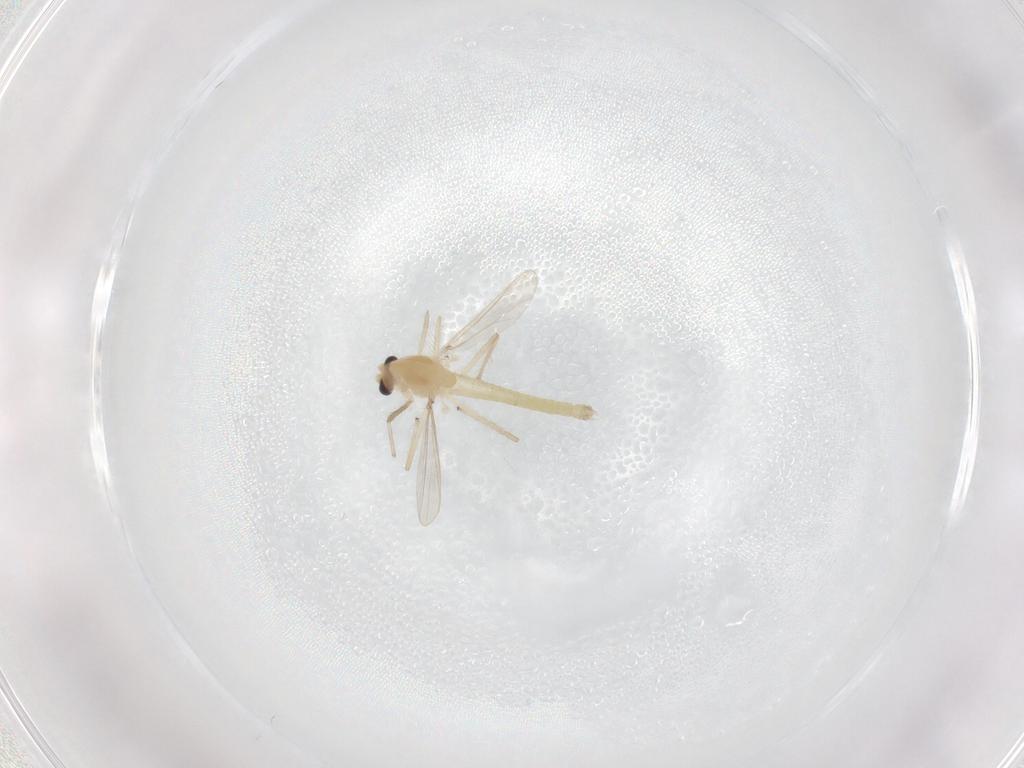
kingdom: Animalia
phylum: Arthropoda
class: Insecta
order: Diptera
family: Chironomidae
